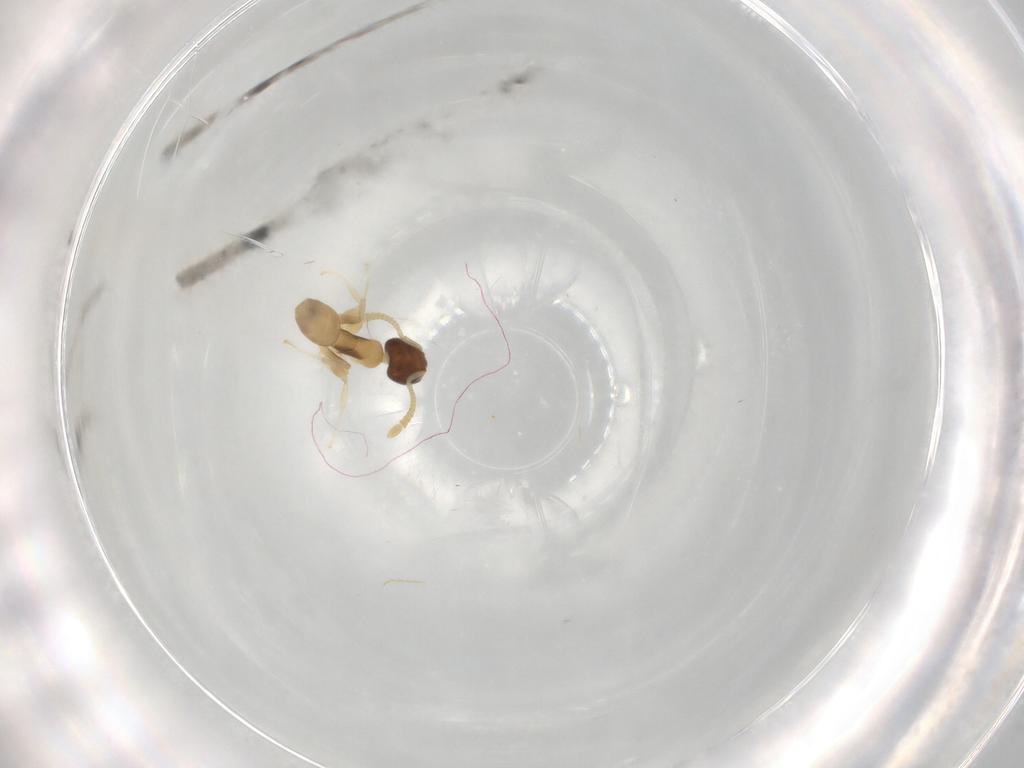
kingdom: Animalia
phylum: Arthropoda
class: Insecta
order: Hymenoptera
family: Formicidae
